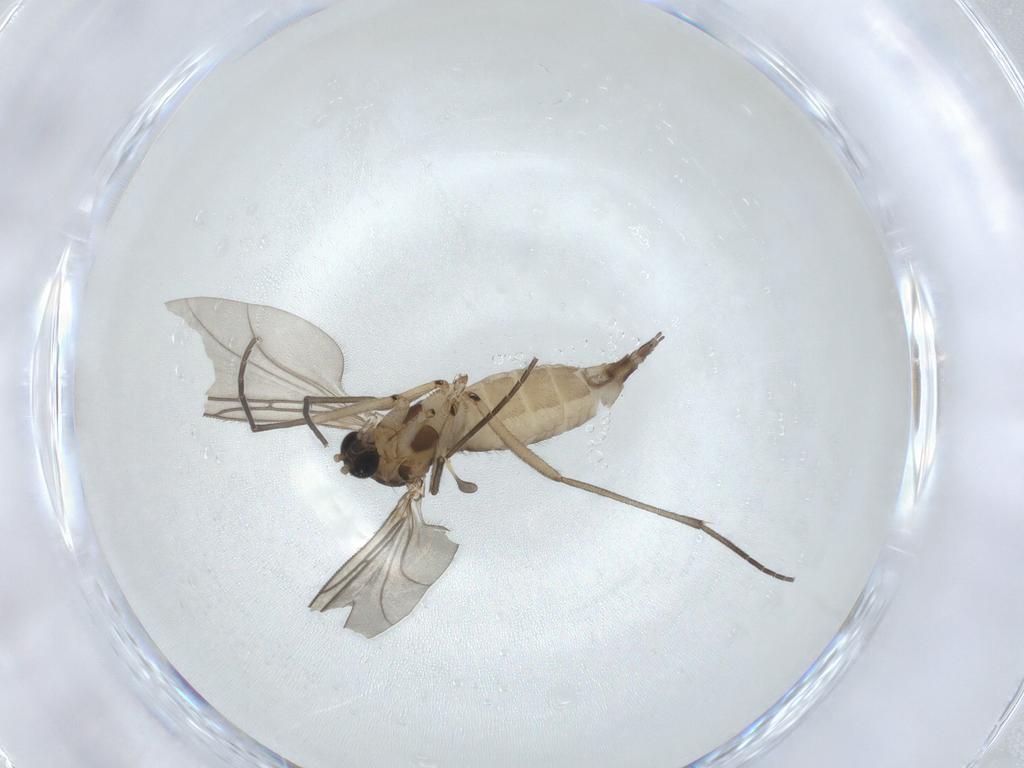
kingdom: Animalia
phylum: Arthropoda
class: Insecta
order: Diptera
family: Sciaridae
